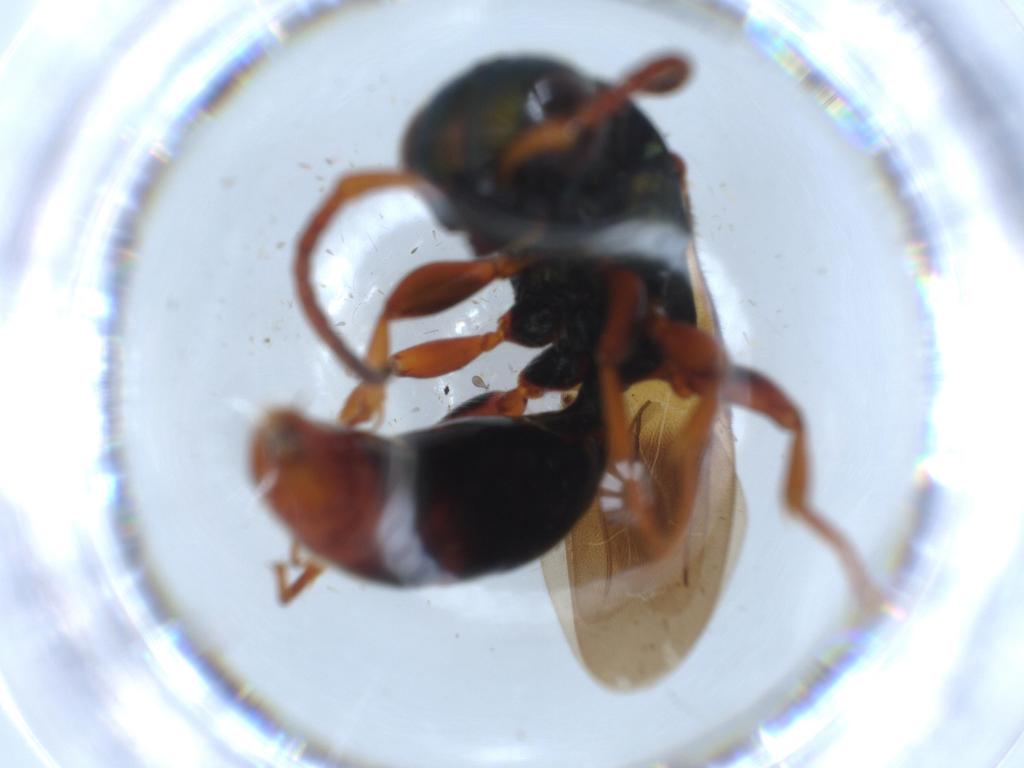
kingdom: Animalia
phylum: Arthropoda
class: Insecta
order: Hymenoptera
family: Bethylidae
